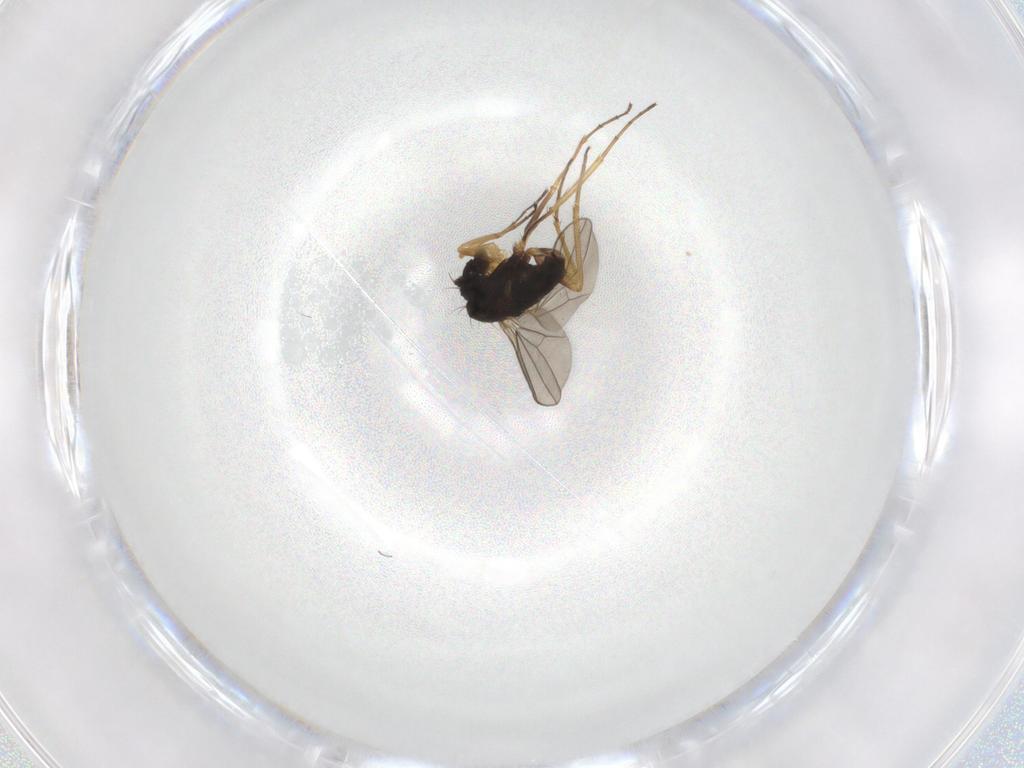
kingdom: Animalia
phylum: Arthropoda
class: Insecta
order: Diptera
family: Dolichopodidae
